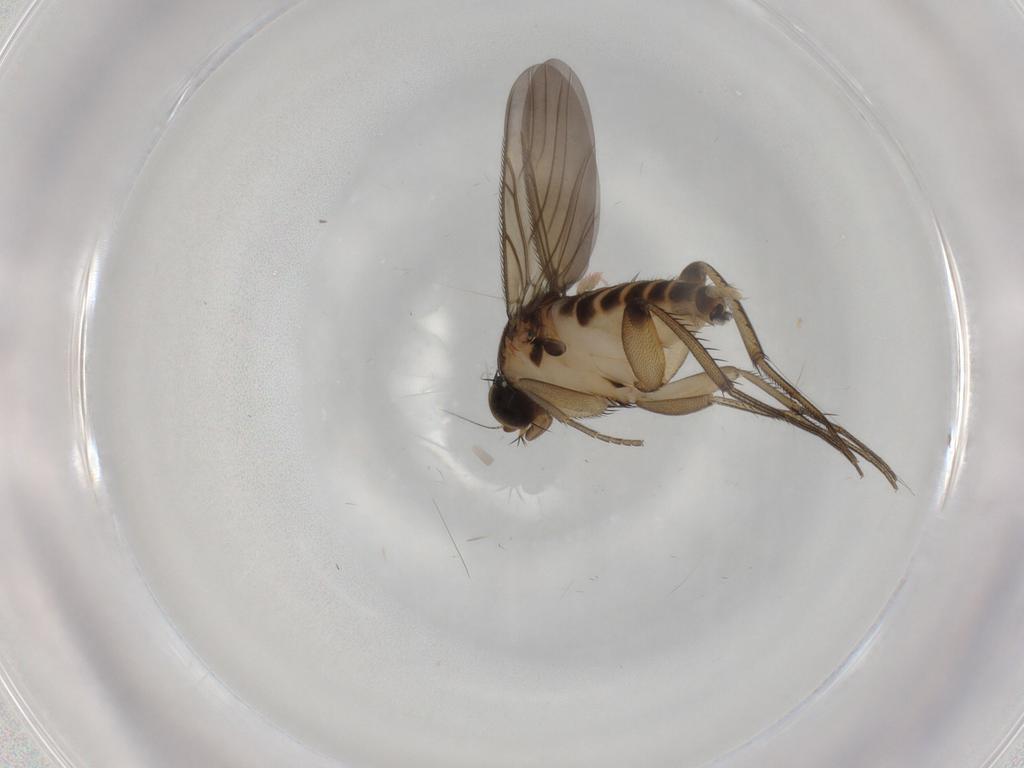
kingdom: Animalia
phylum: Arthropoda
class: Insecta
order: Diptera
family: Phoridae
